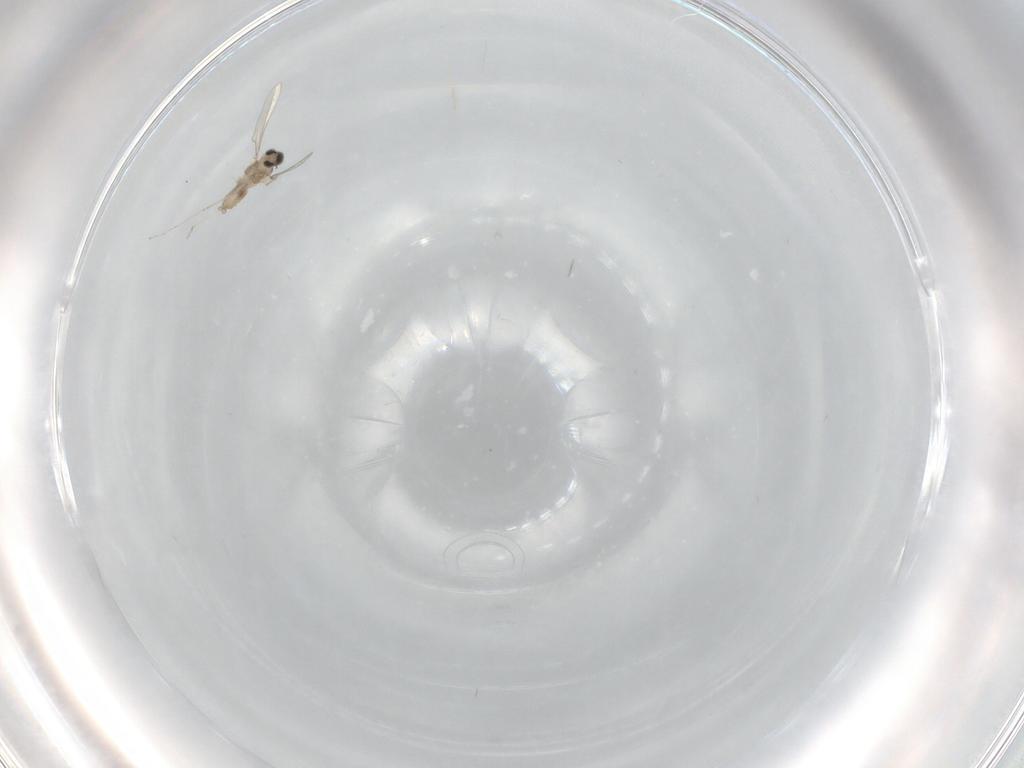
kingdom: Animalia
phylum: Arthropoda
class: Insecta
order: Diptera
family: Cecidomyiidae
